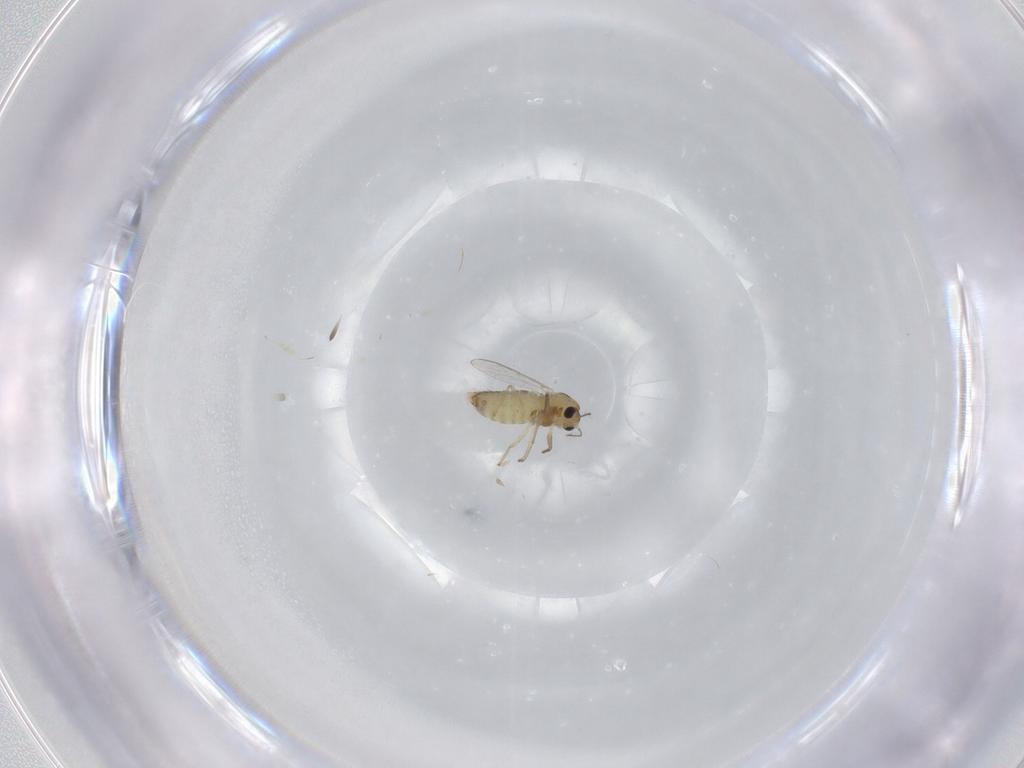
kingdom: Animalia
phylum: Arthropoda
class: Insecta
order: Diptera
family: Chironomidae
